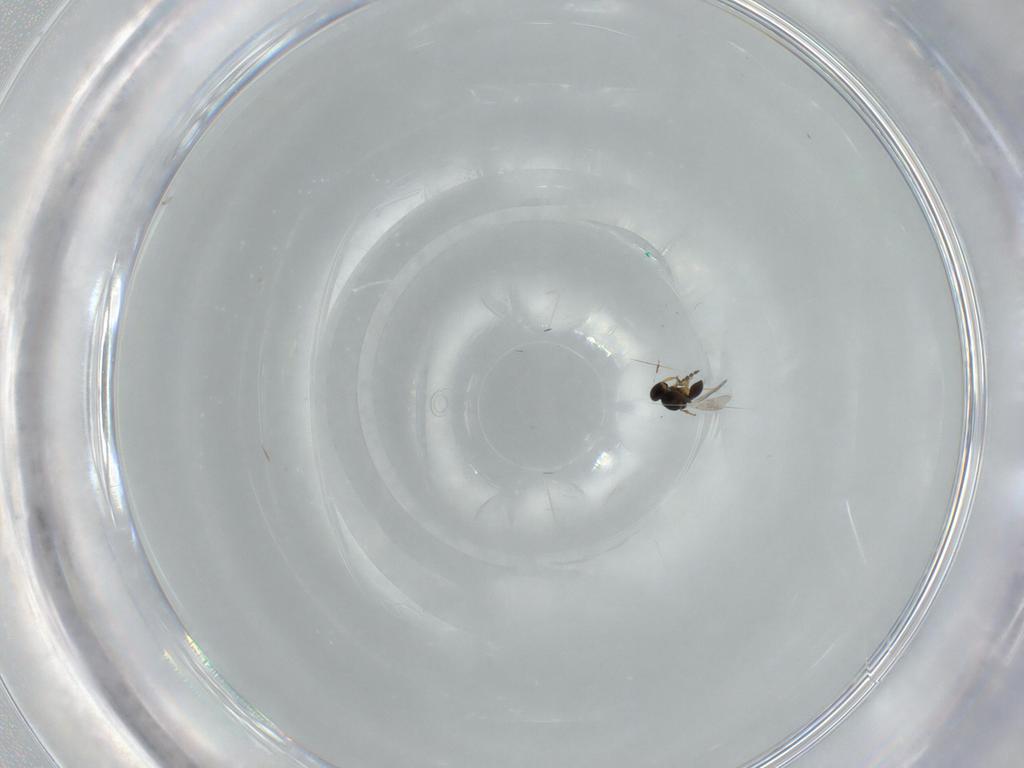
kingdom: Animalia
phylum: Arthropoda
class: Insecta
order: Hymenoptera
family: Platygastridae
